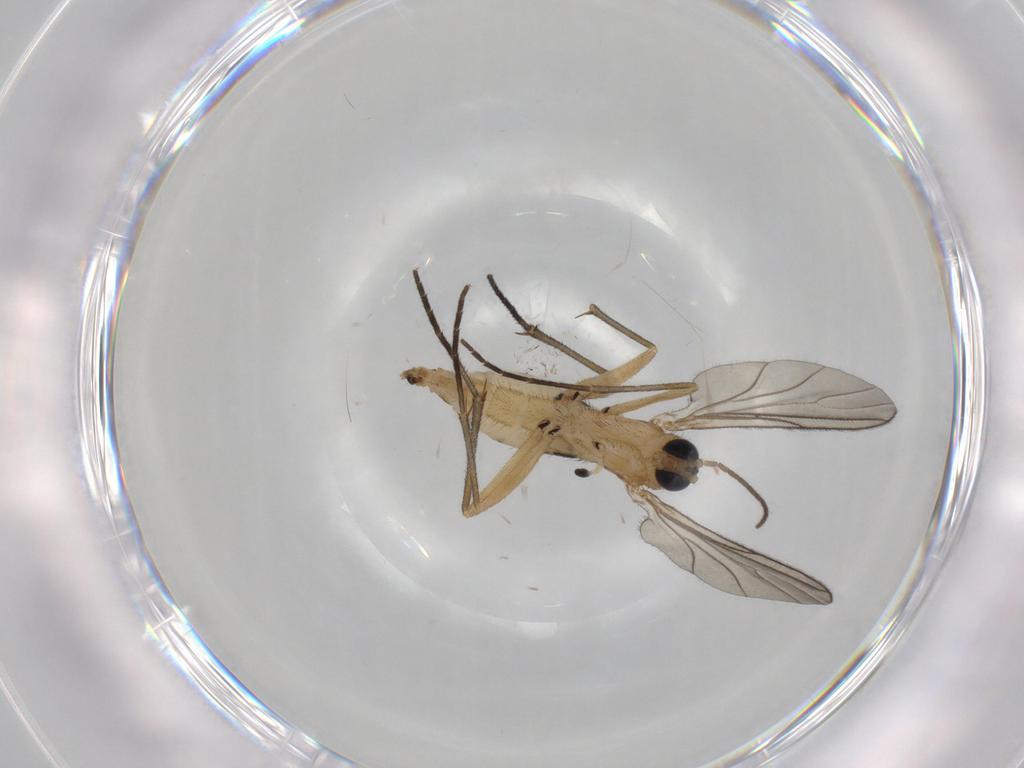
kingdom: Animalia
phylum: Arthropoda
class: Insecta
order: Diptera
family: Sciaridae
